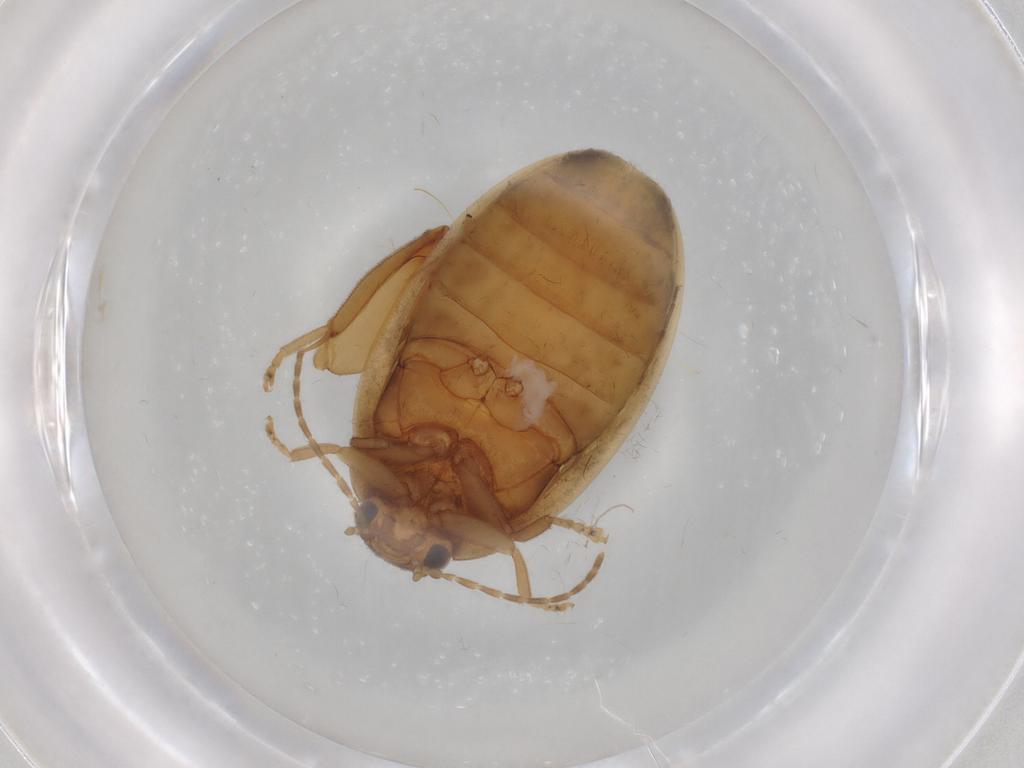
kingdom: Animalia
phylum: Arthropoda
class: Insecta
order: Coleoptera
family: Scirtidae
